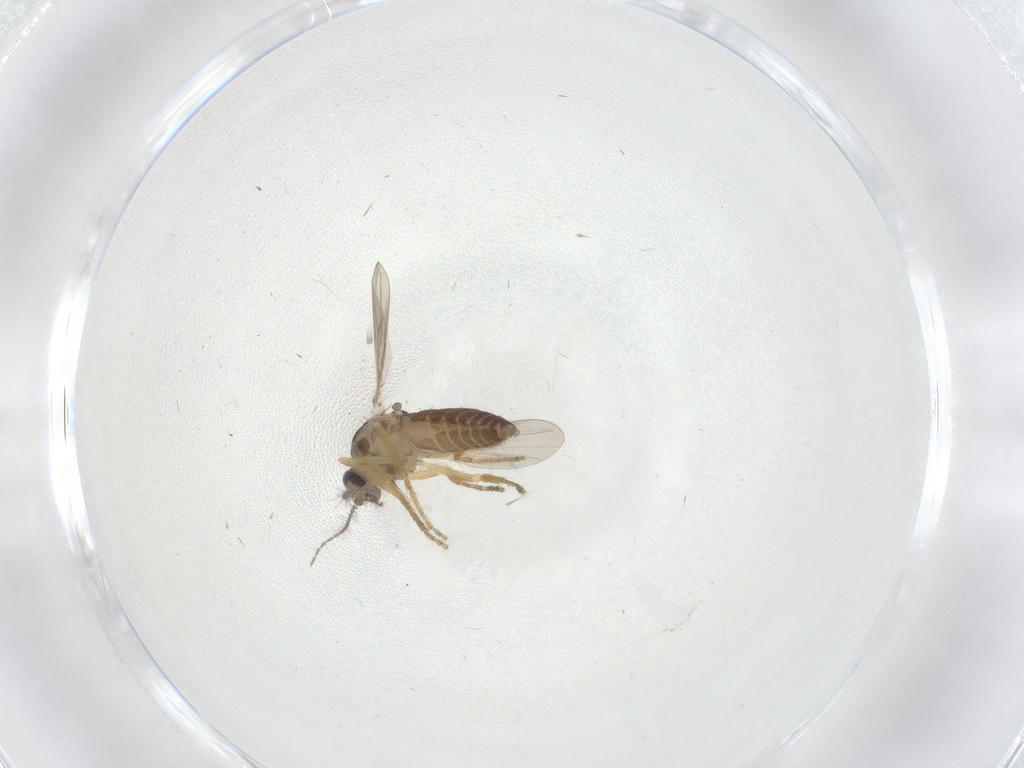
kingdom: Animalia
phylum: Arthropoda
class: Insecta
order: Diptera
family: Ceratopogonidae
